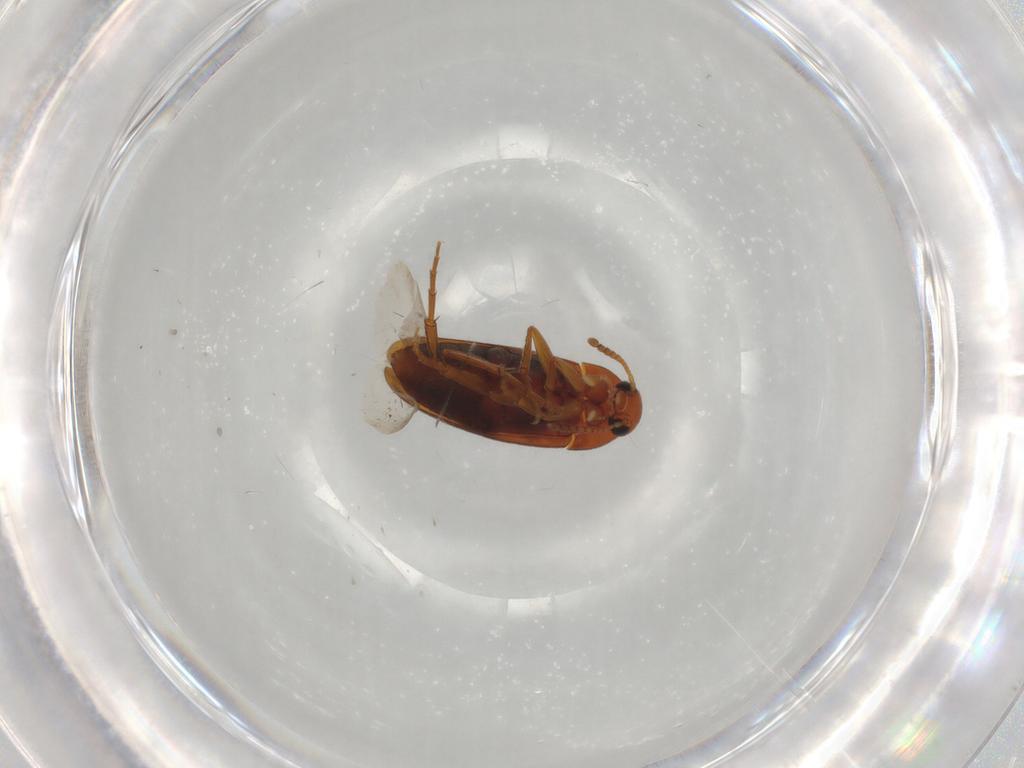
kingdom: Animalia
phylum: Arthropoda
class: Insecta
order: Coleoptera
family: Scraptiidae
